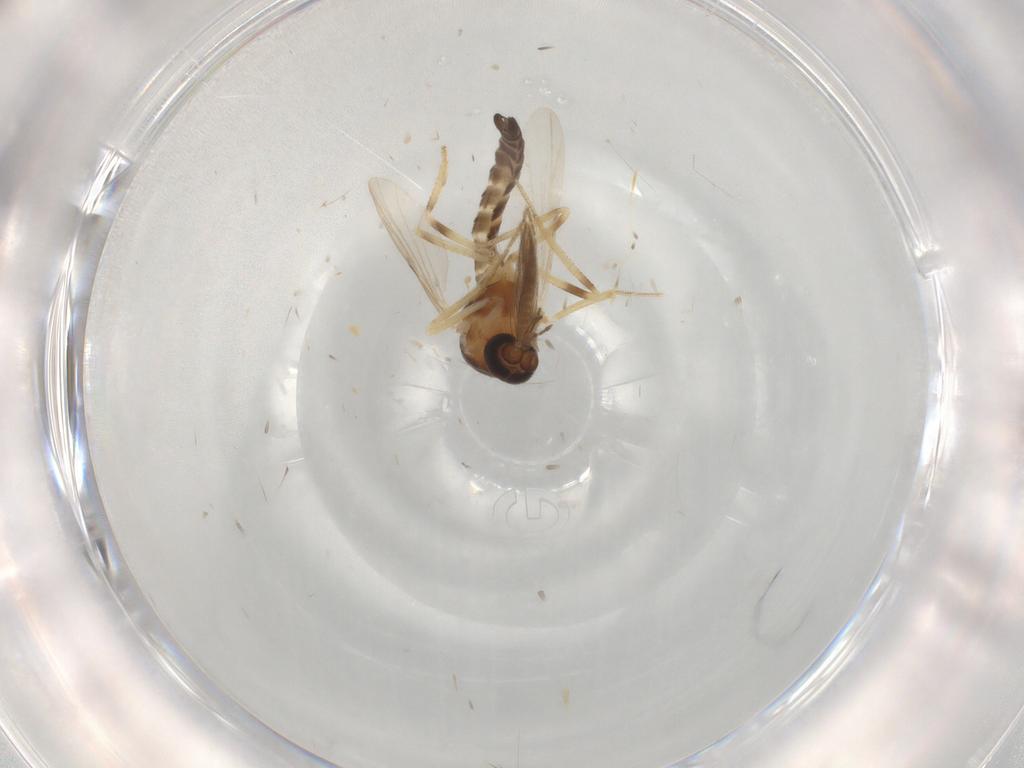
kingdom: Animalia
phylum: Arthropoda
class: Insecta
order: Diptera
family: Ceratopogonidae
